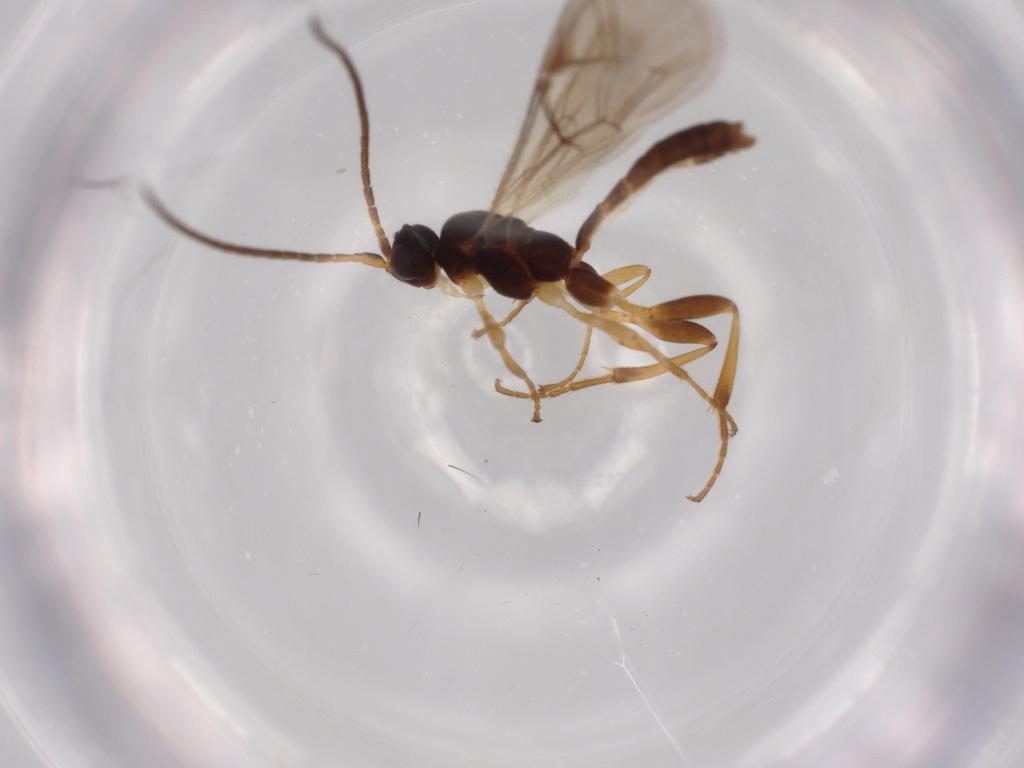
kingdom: Animalia
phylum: Arthropoda
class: Insecta
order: Hymenoptera
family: Ichneumonidae
